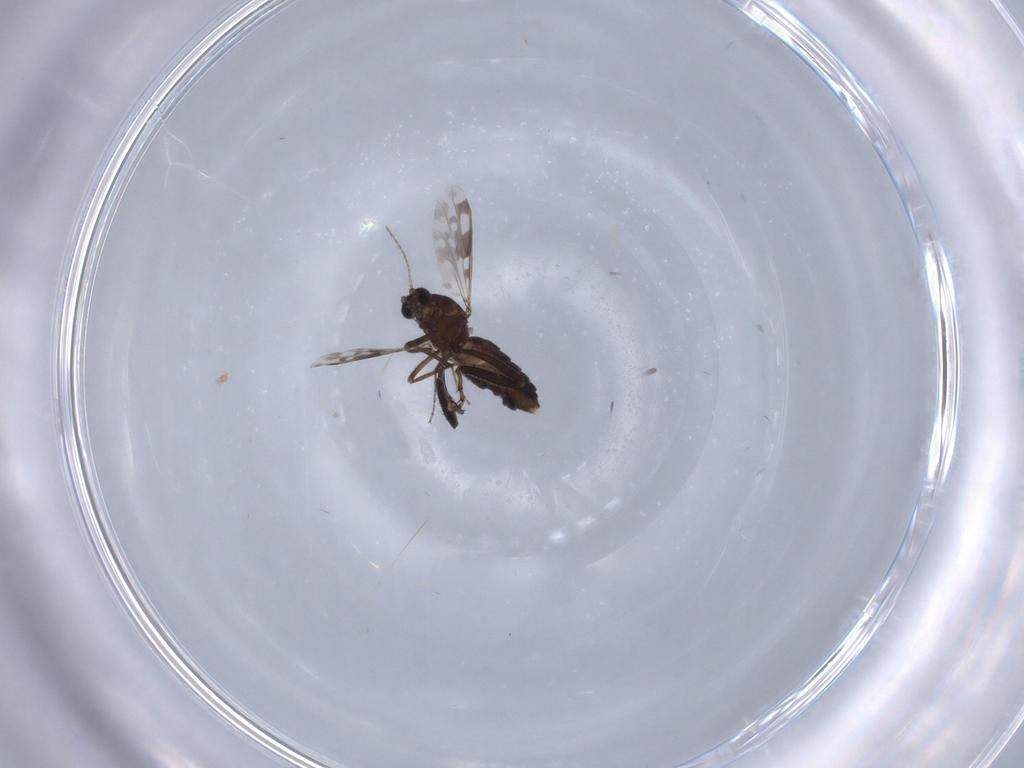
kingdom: Animalia
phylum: Arthropoda
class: Insecta
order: Diptera
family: Ceratopogonidae
